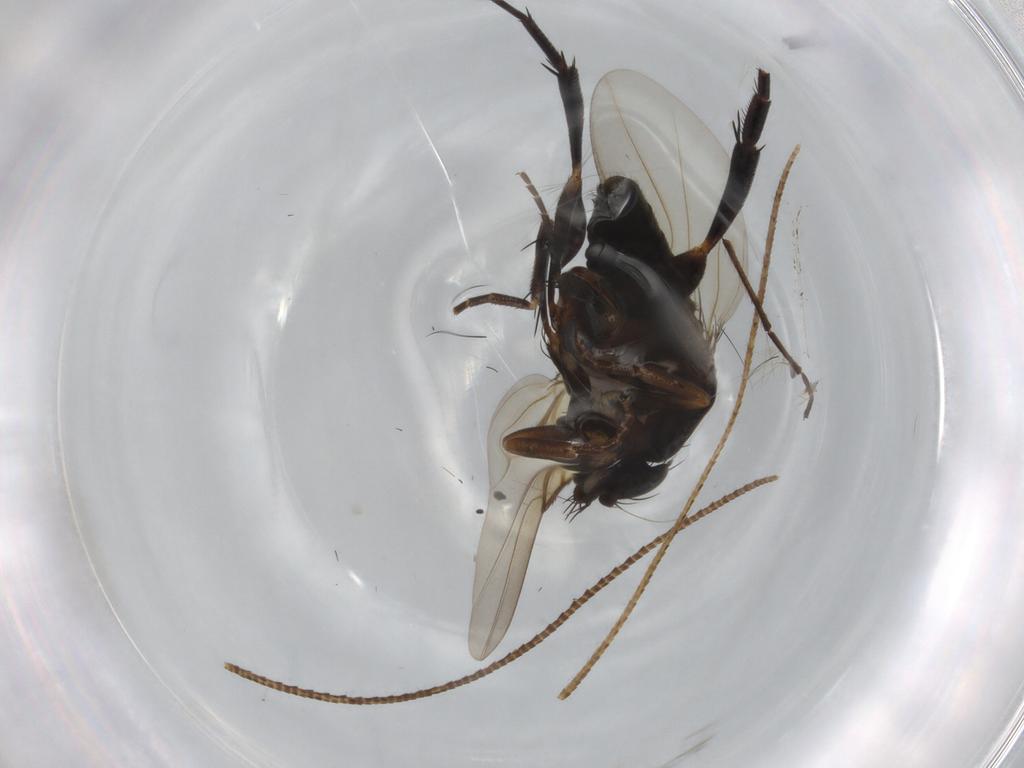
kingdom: Animalia
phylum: Arthropoda
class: Insecta
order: Diptera
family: Phoridae
